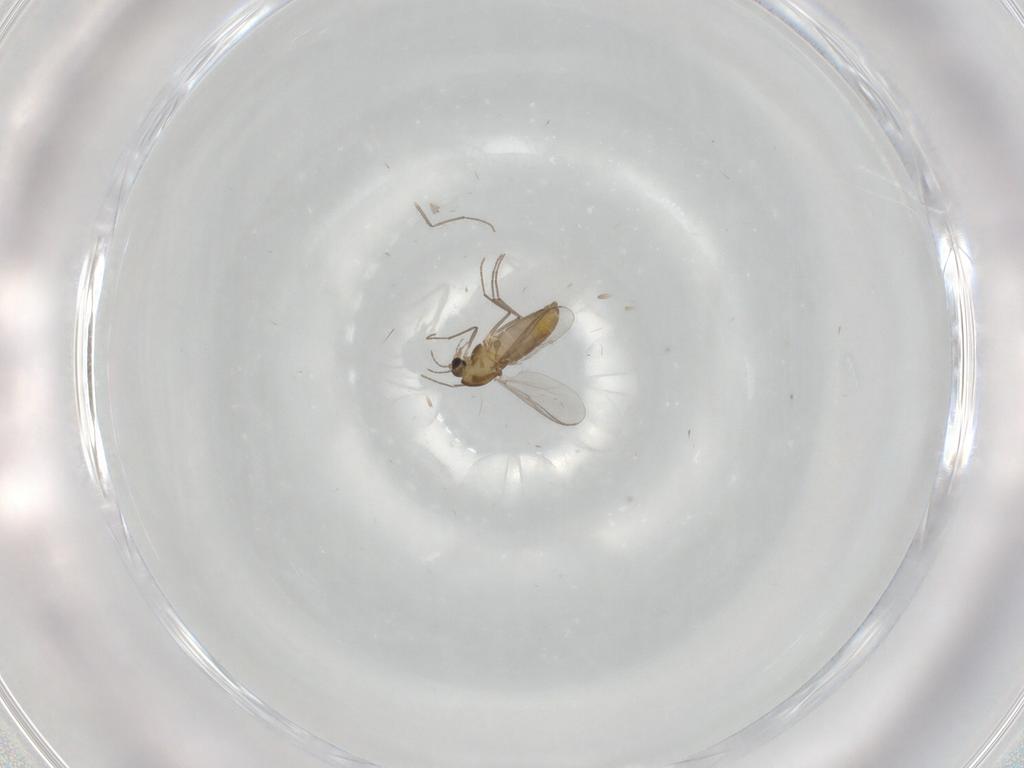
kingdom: Animalia
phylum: Arthropoda
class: Insecta
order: Diptera
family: Chironomidae
